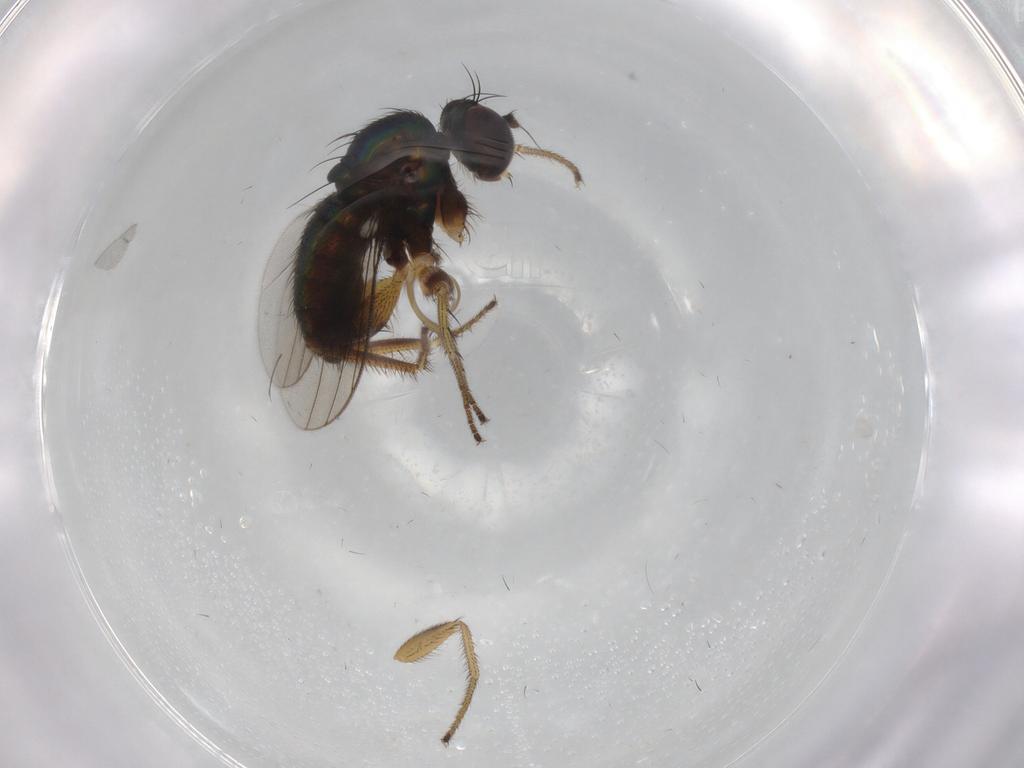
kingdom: Animalia
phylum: Arthropoda
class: Insecta
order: Diptera
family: Dolichopodidae
